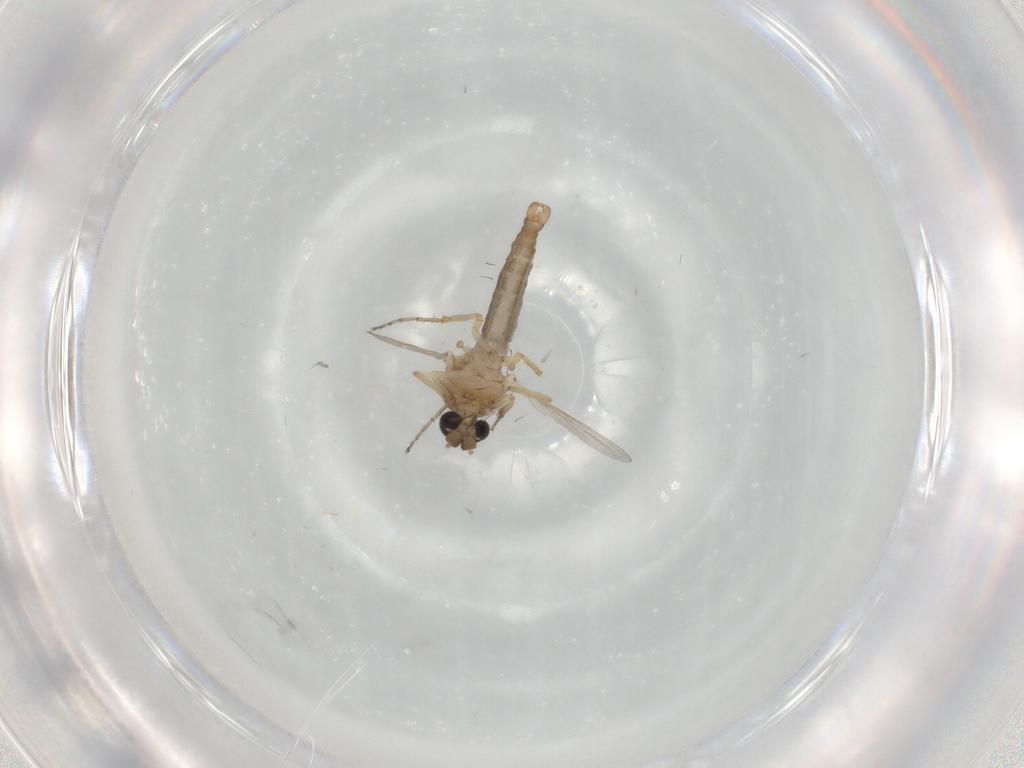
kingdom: Animalia
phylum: Arthropoda
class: Insecta
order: Diptera
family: Ceratopogonidae
